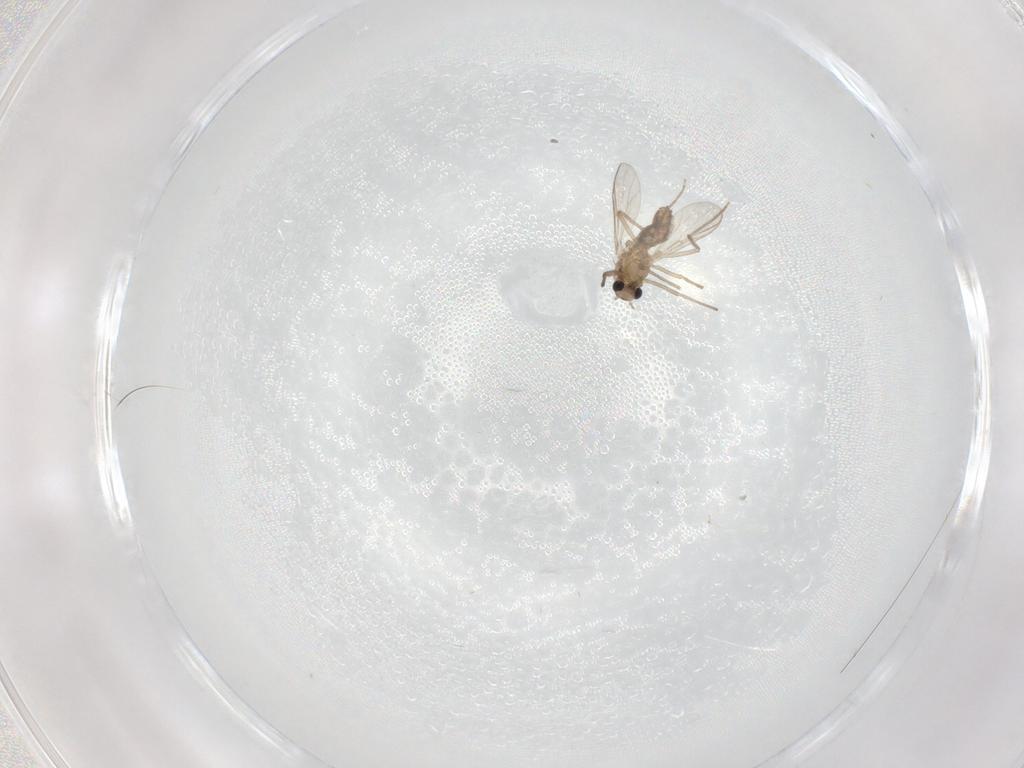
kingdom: Animalia
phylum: Arthropoda
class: Insecta
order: Diptera
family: Chironomidae
